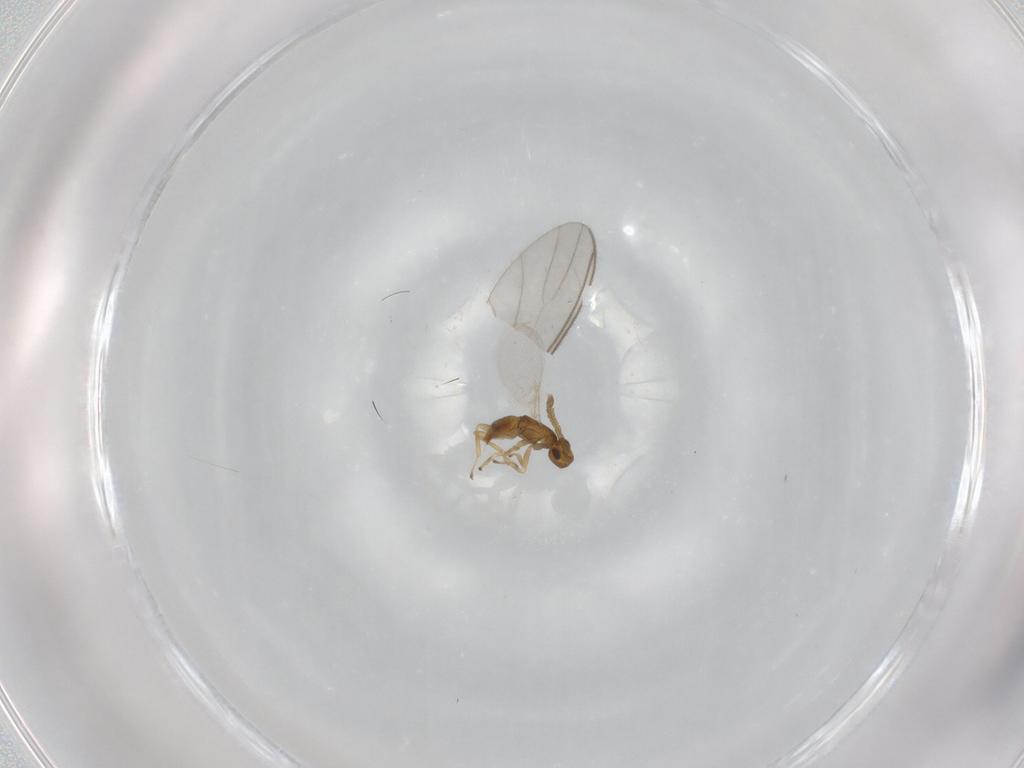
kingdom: Animalia
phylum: Arthropoda
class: Insecta
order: Hymenoptera
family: Encyrtidae
